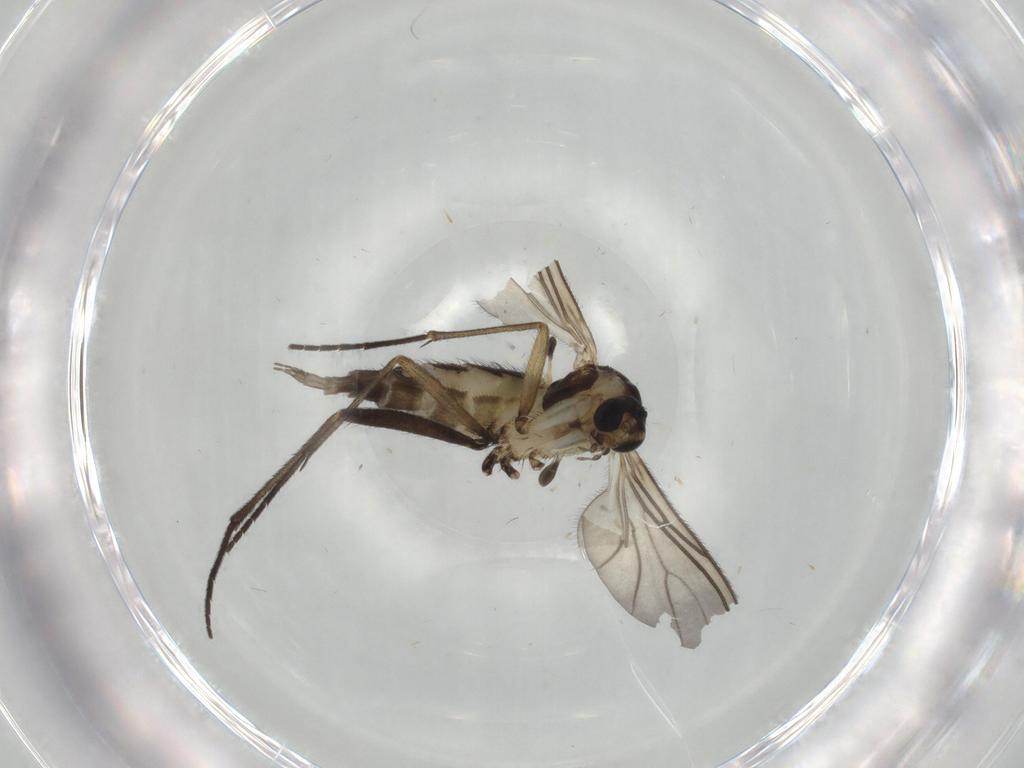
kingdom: Animalia
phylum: Arthropoda
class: Insecta
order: Diptera
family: Sciaridae
